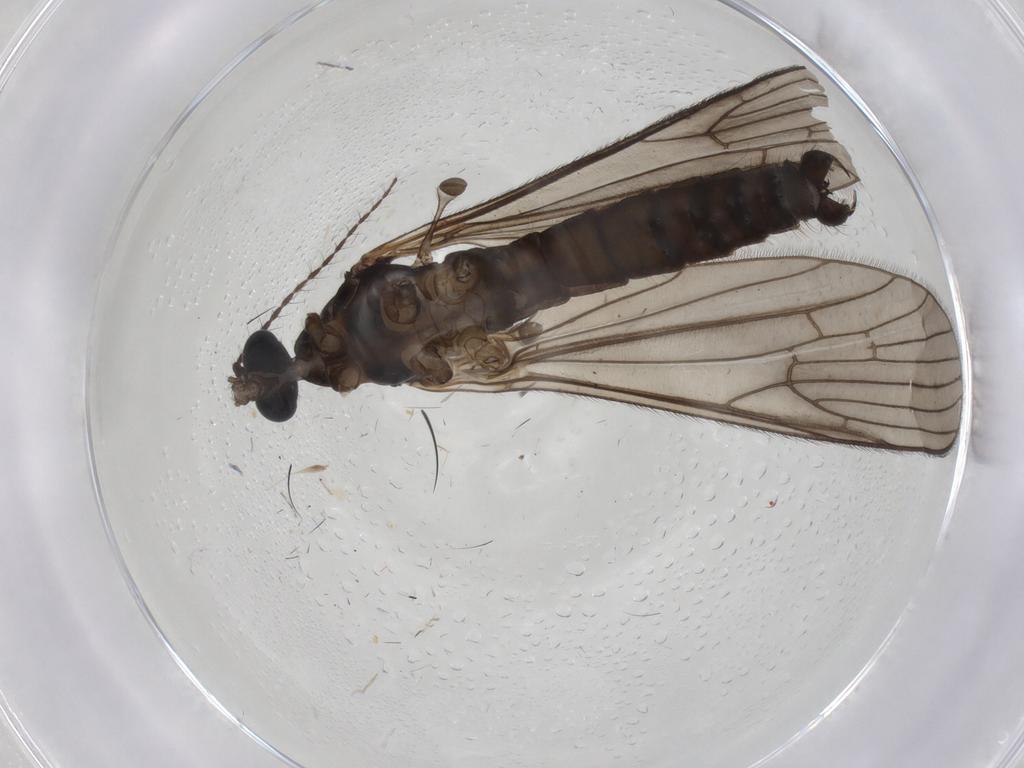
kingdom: Animalia
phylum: Arthropoda
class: Insecta
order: Diptera
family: Limoniidae
